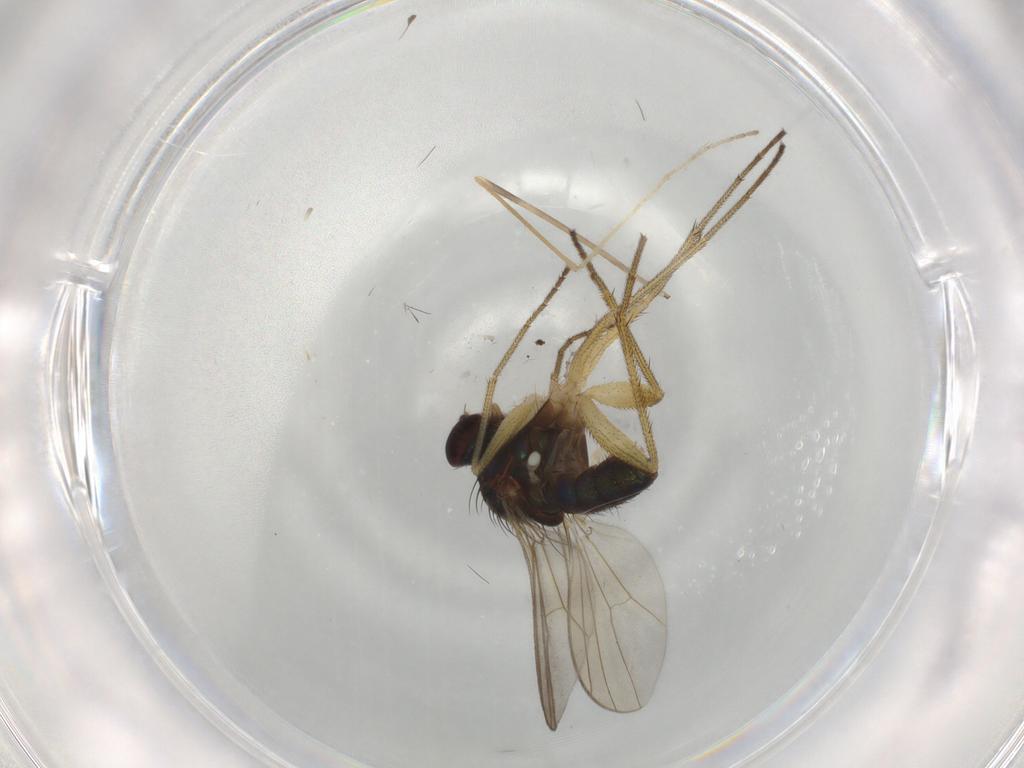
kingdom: Animalia
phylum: Arthropoda
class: Insecta
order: Diptera
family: Dolichopodidae
